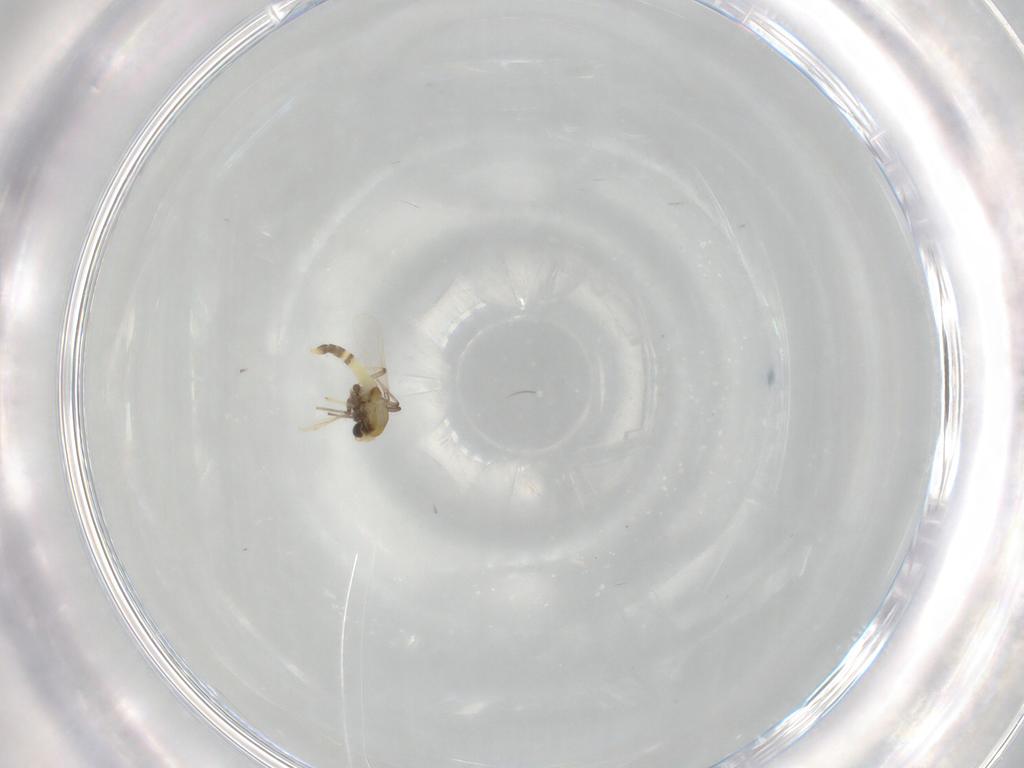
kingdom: Animalia
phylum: Arthropoda
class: Insecta
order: Diptera
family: Chironomidae
